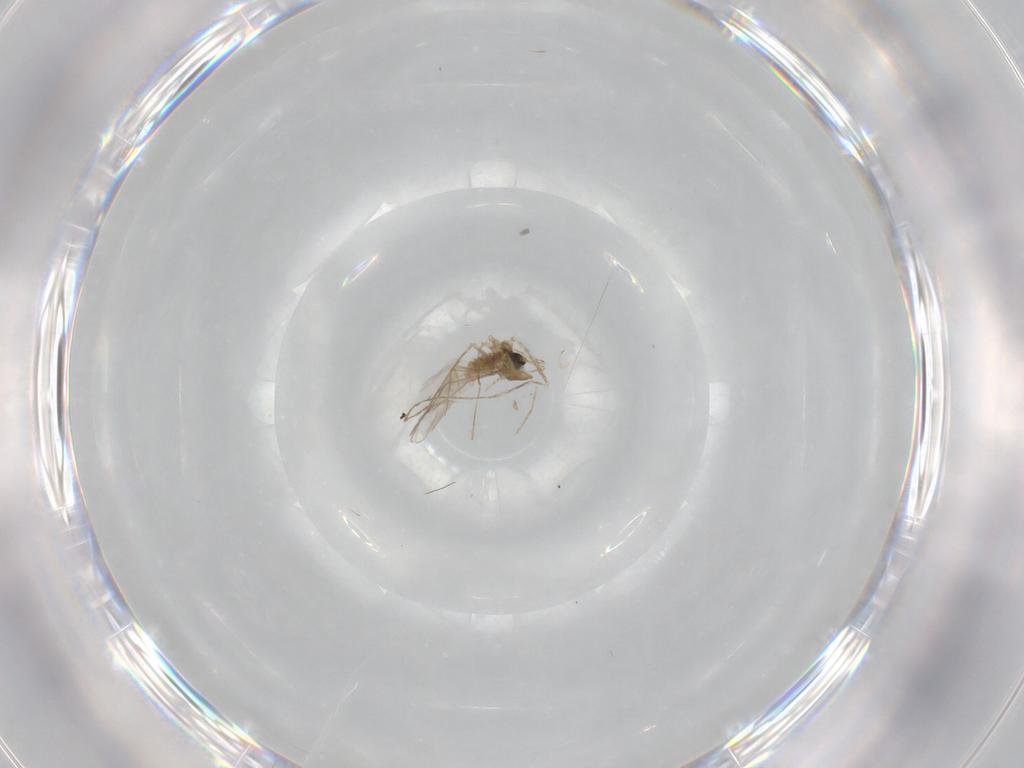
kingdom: Animalia
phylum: Arthropoda
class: Insecta
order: Diptera
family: Cecidomyiidae
